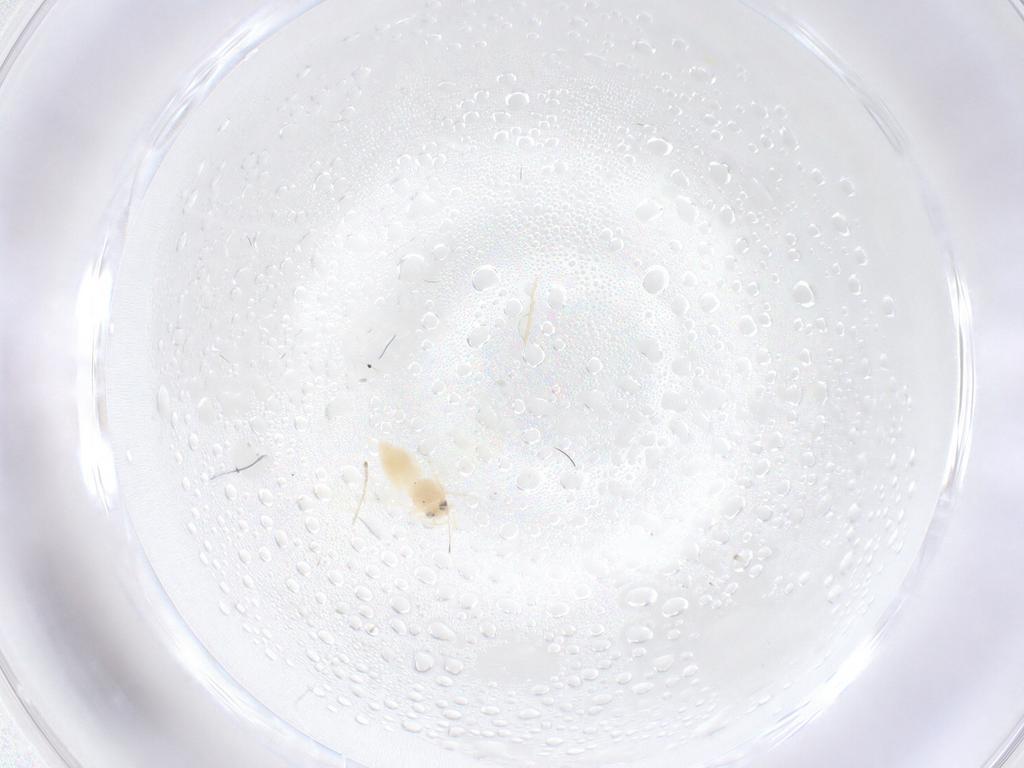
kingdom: Animalia
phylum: Arthropoda
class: Insecta
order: Hemiptera
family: Aleyrodidae
